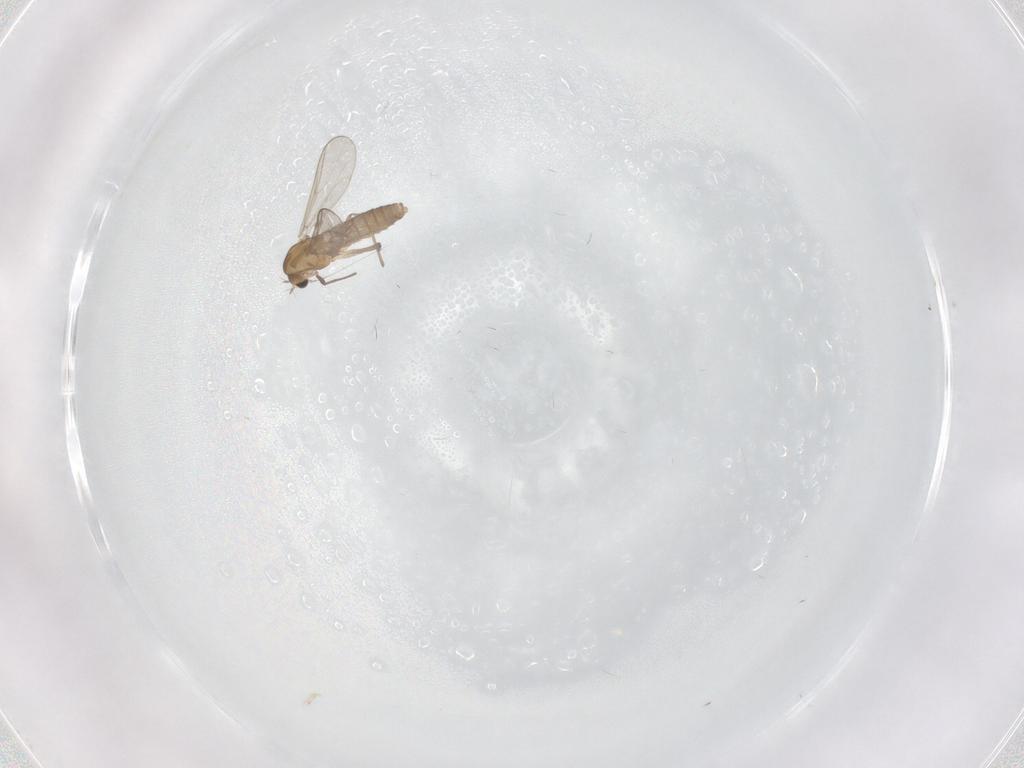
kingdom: Animalia
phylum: Arthropoda
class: Insecta
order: Diptera
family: Chironomidae
